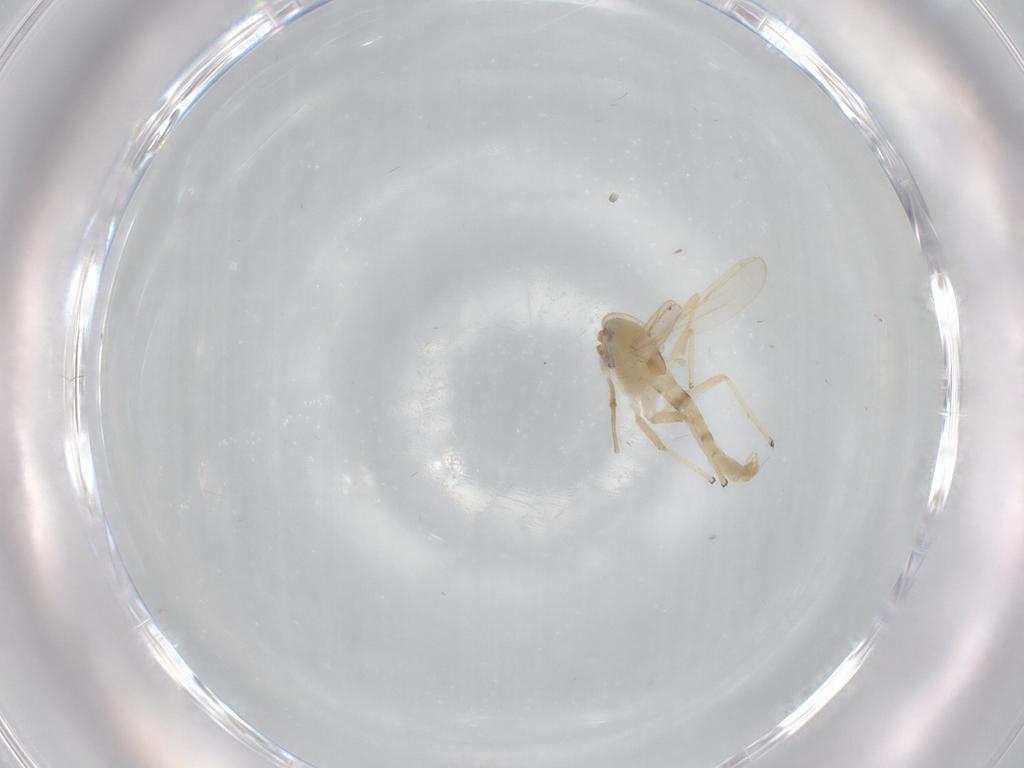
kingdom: Animalia
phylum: Arthropoda
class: Insecta
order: Diptera
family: Chironomidae
